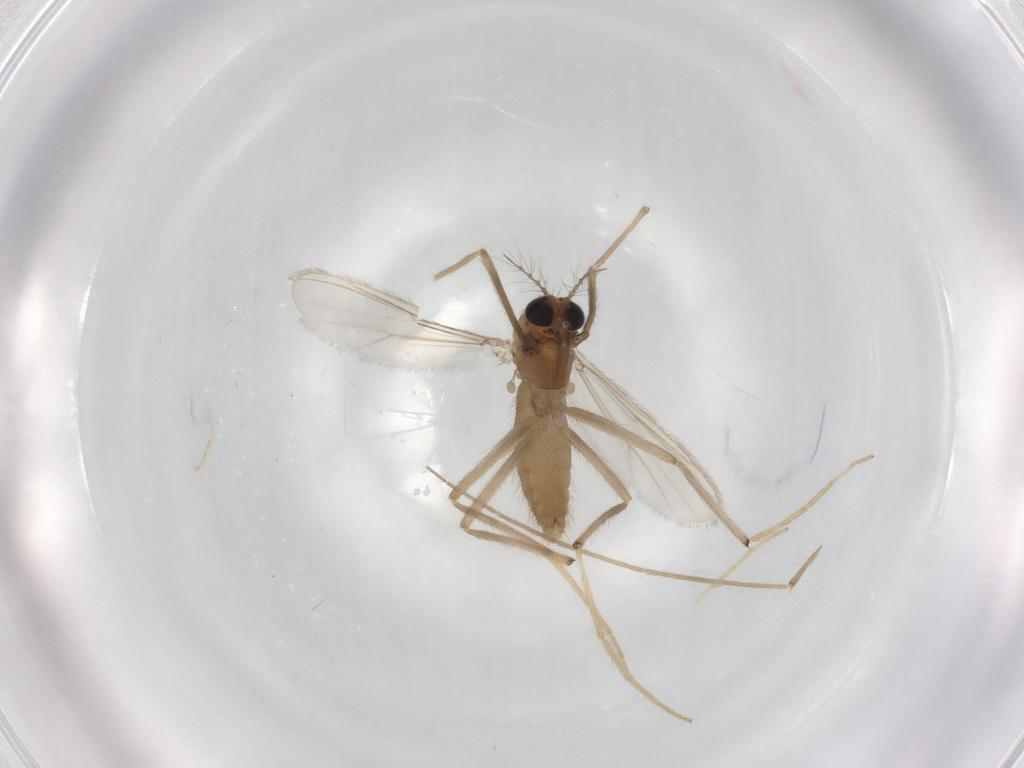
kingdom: Animalia
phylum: Arthropoda
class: Insecta
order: Diptera
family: Chironomidae
